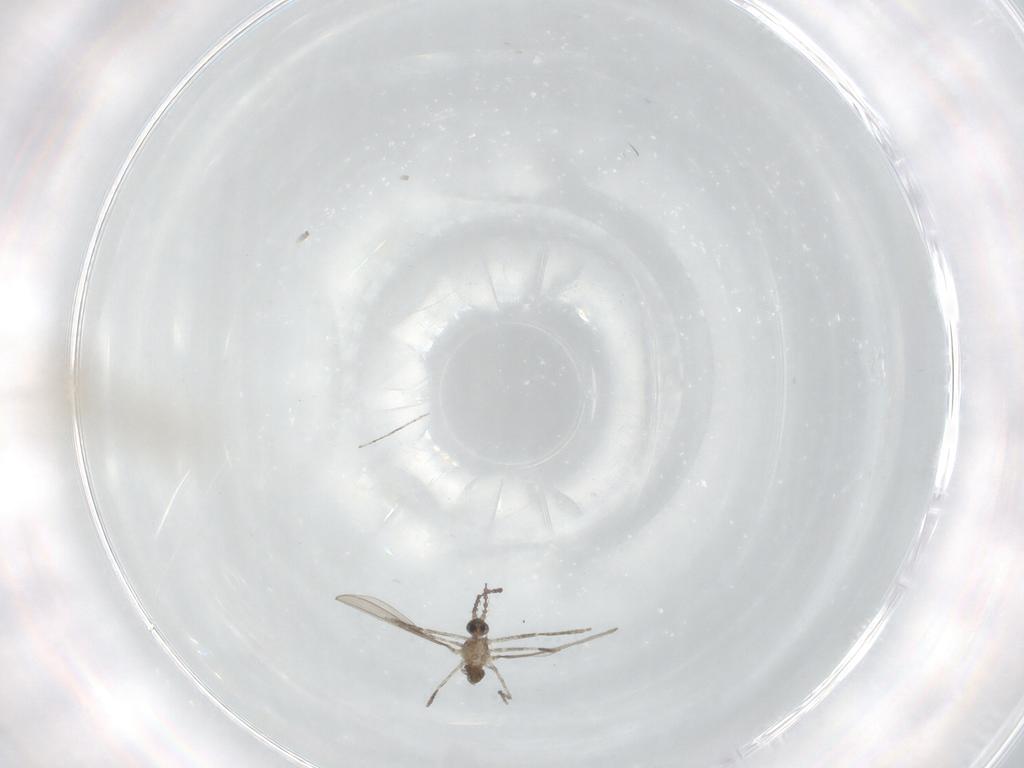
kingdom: Animalia
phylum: Arthropoda
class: Insecta
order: Diptera
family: Cecidomyiidae
